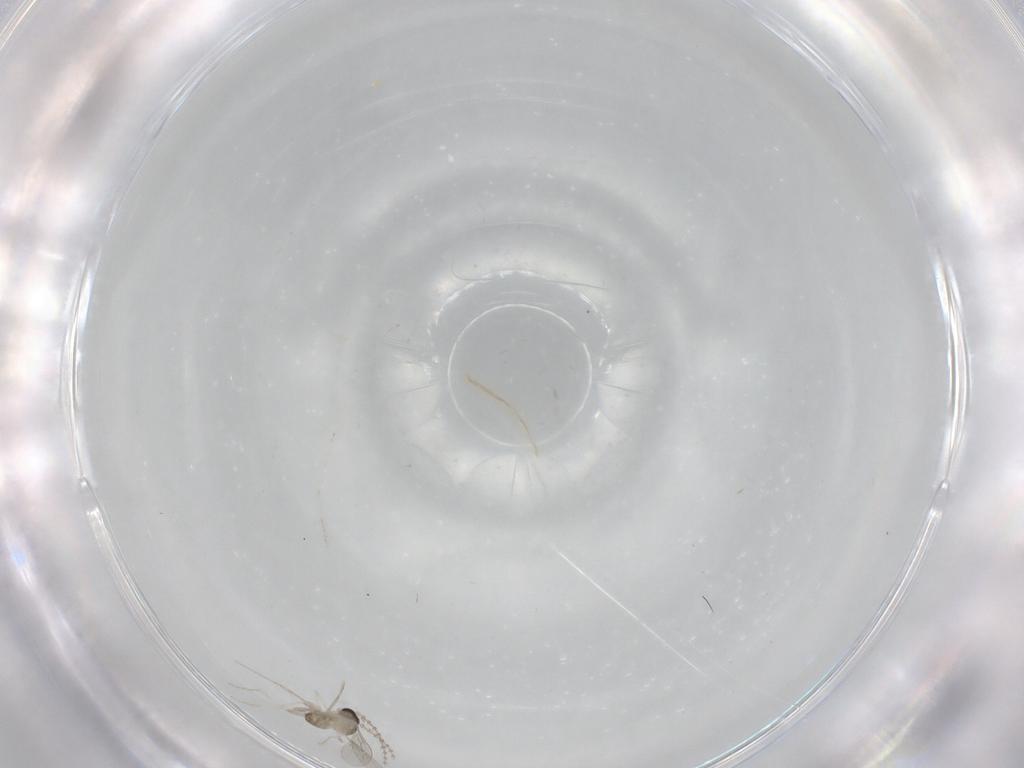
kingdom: Animalia
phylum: Arthropoda
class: Insecta
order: Diptera
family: Cecidomyiidae
